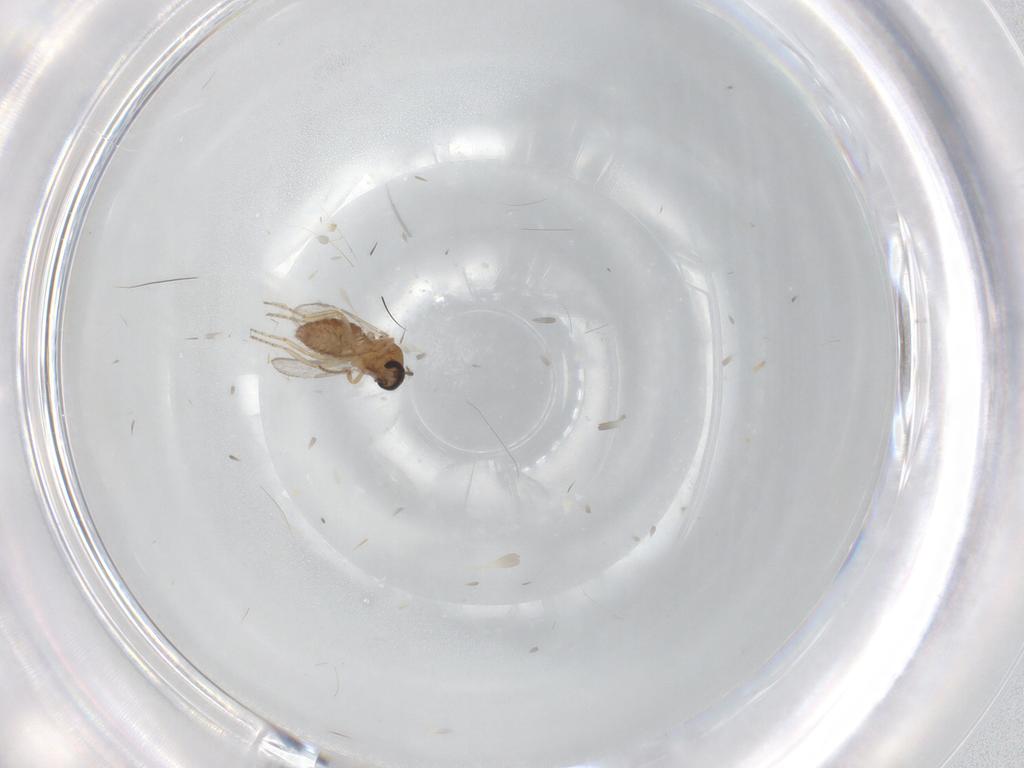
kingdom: Animalia
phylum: Arthropoda
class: Insecta
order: Diptera
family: Ceratopogonidae
